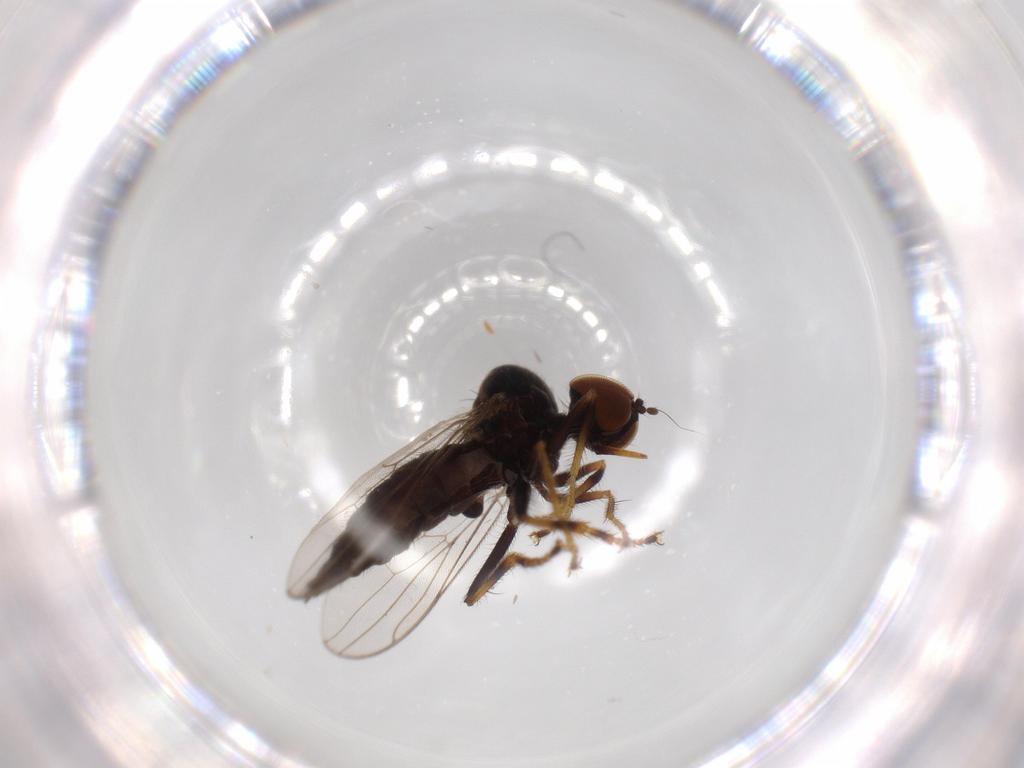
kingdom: Animalia
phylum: Arthropoda
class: Insecta
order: Diptera
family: Hybotidae
